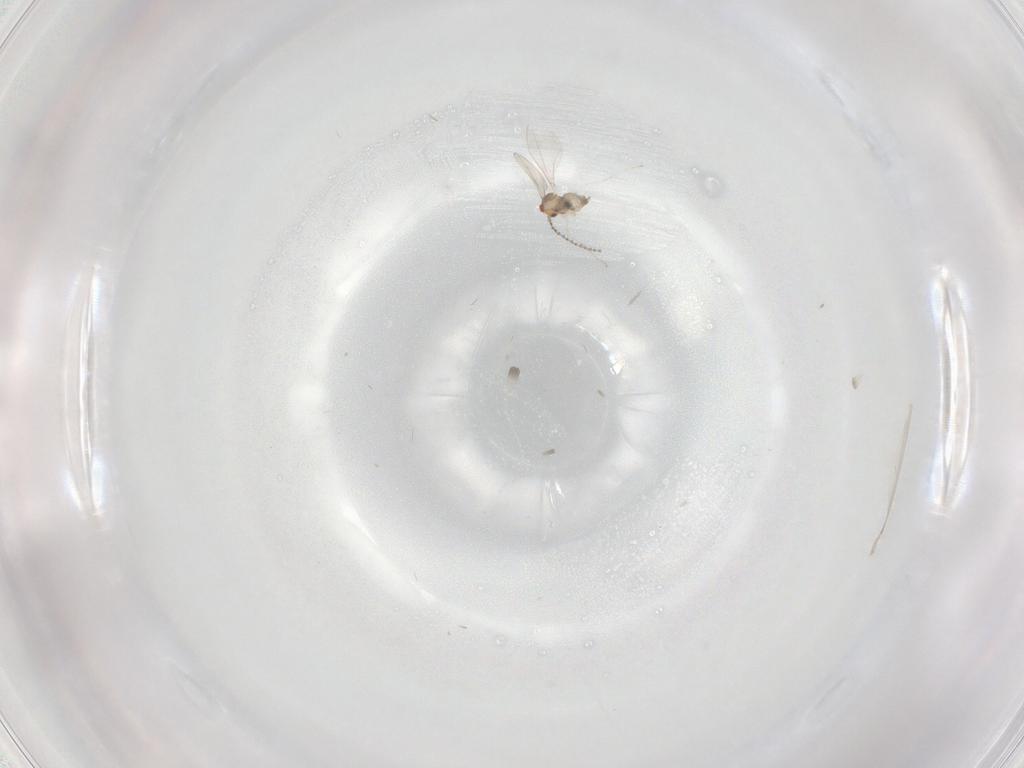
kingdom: Animalia
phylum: Arthropoda
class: Insecta
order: Diptera
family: Cecidomyiidae
